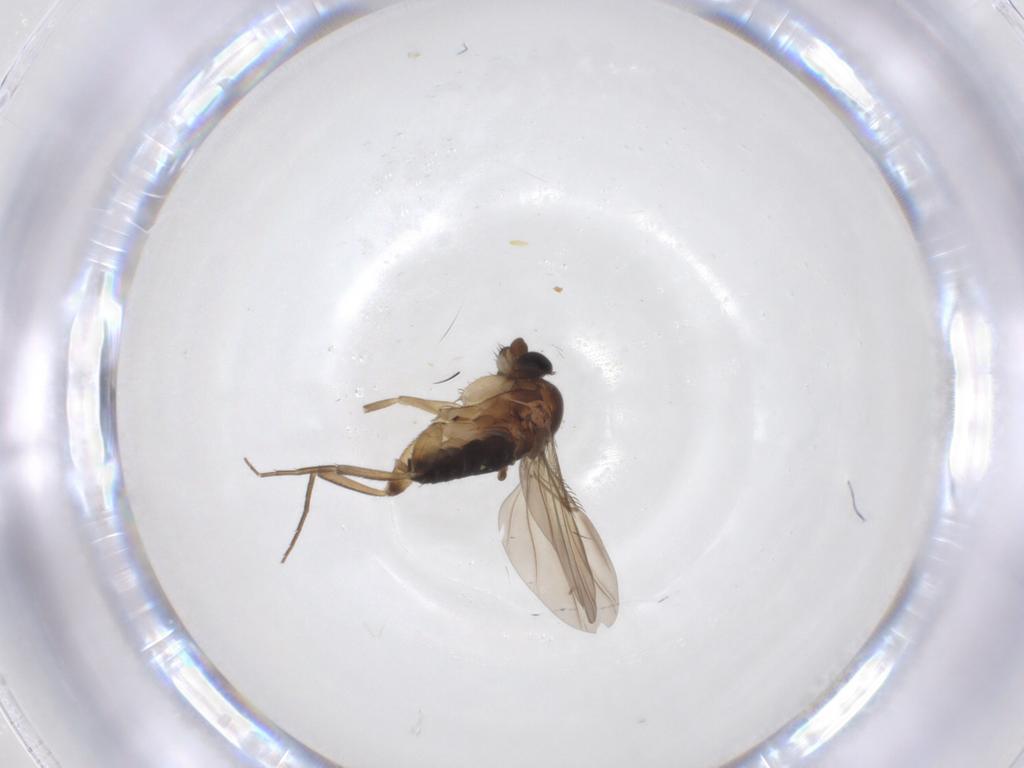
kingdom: Animalia
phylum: Arthropoda
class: Insecta
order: Diptera
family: Phoridae
